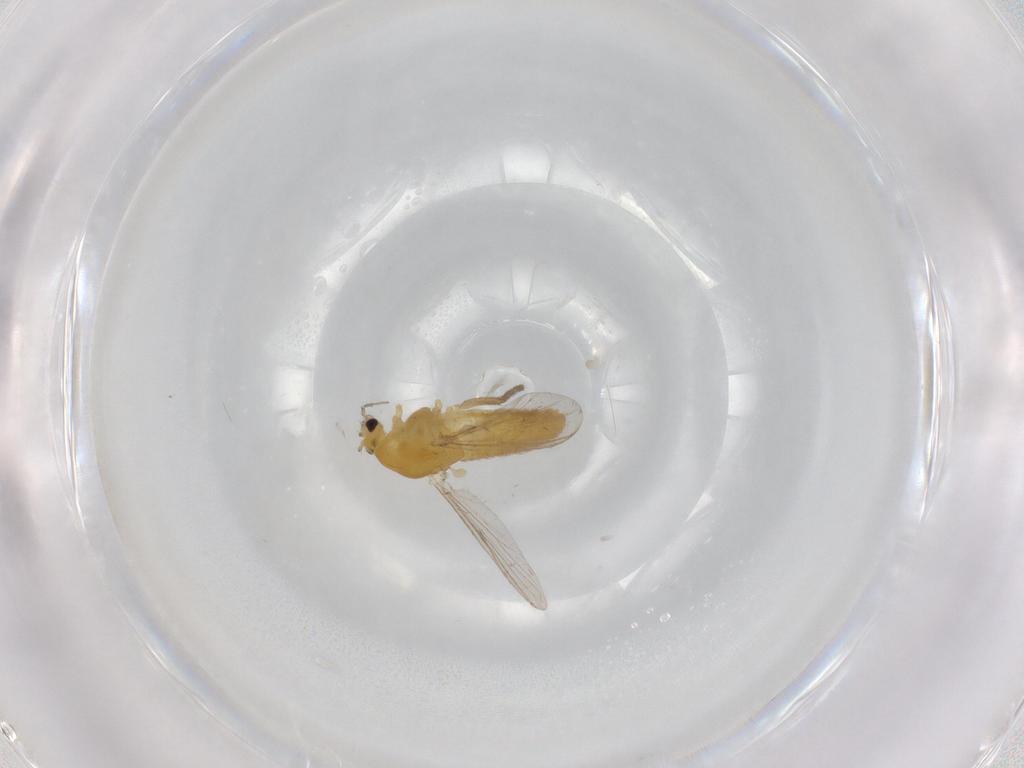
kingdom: Animalia
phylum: Arthropoda
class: Insecta
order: Diptera
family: Chironomidae
